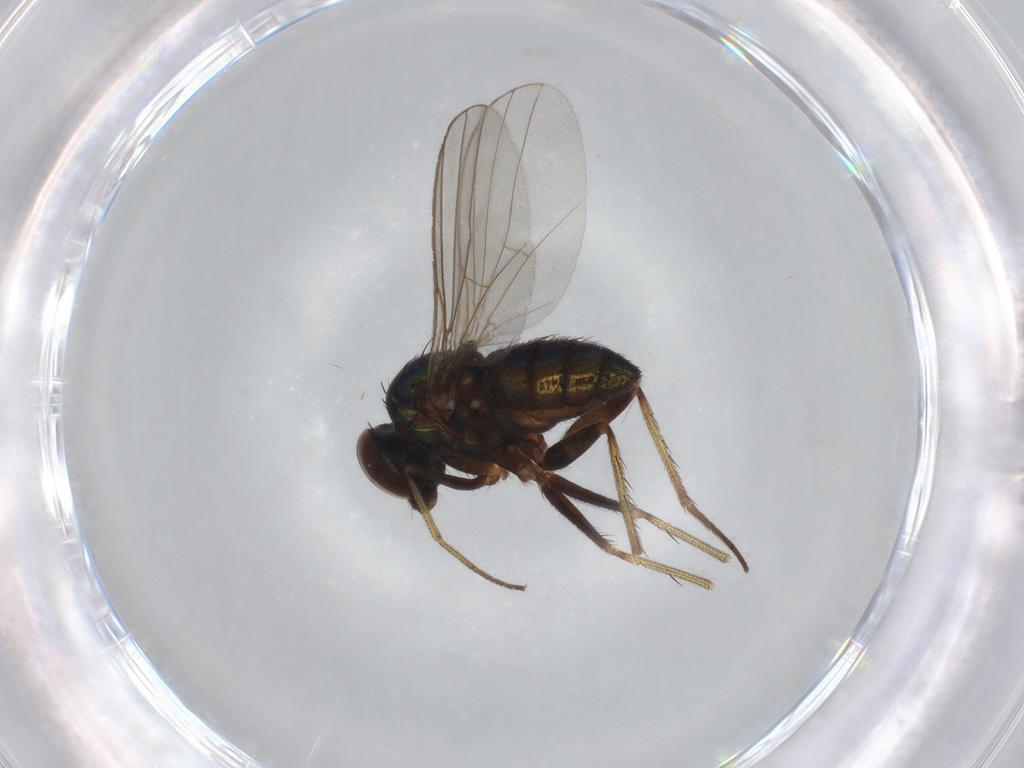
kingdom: Animalia
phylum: Arthropoda
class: Insecta
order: Diptera
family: Dolichopodidae
